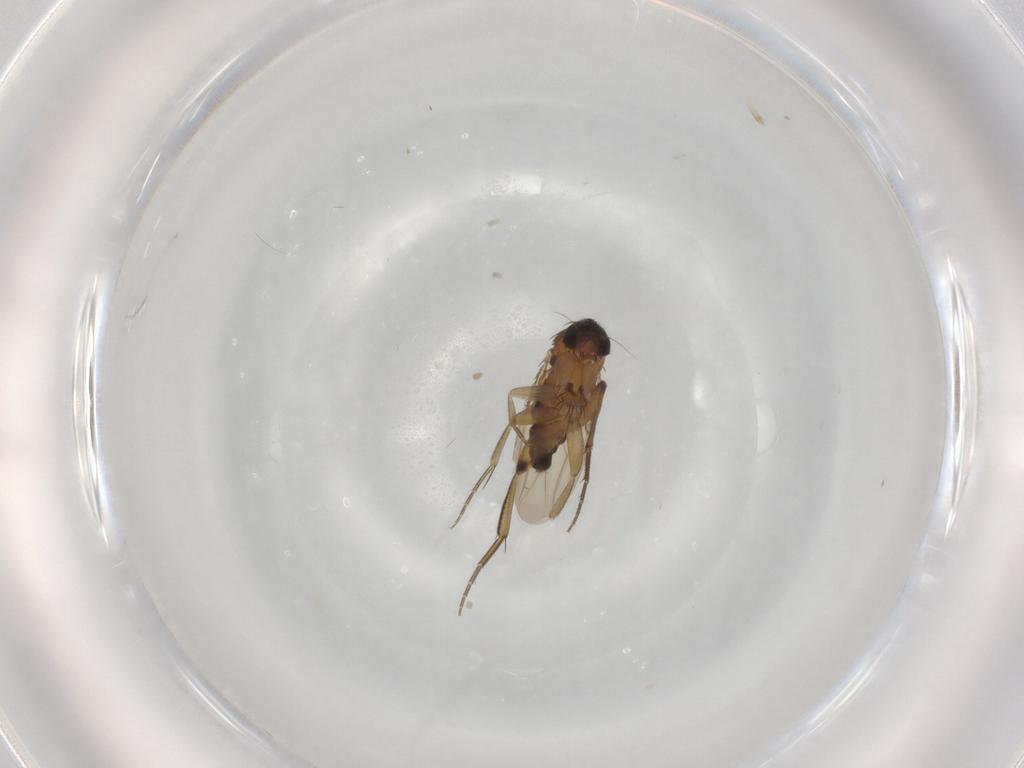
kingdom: Animalia
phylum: Arthropoda
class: Insecta
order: Diptera
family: Phoridae
